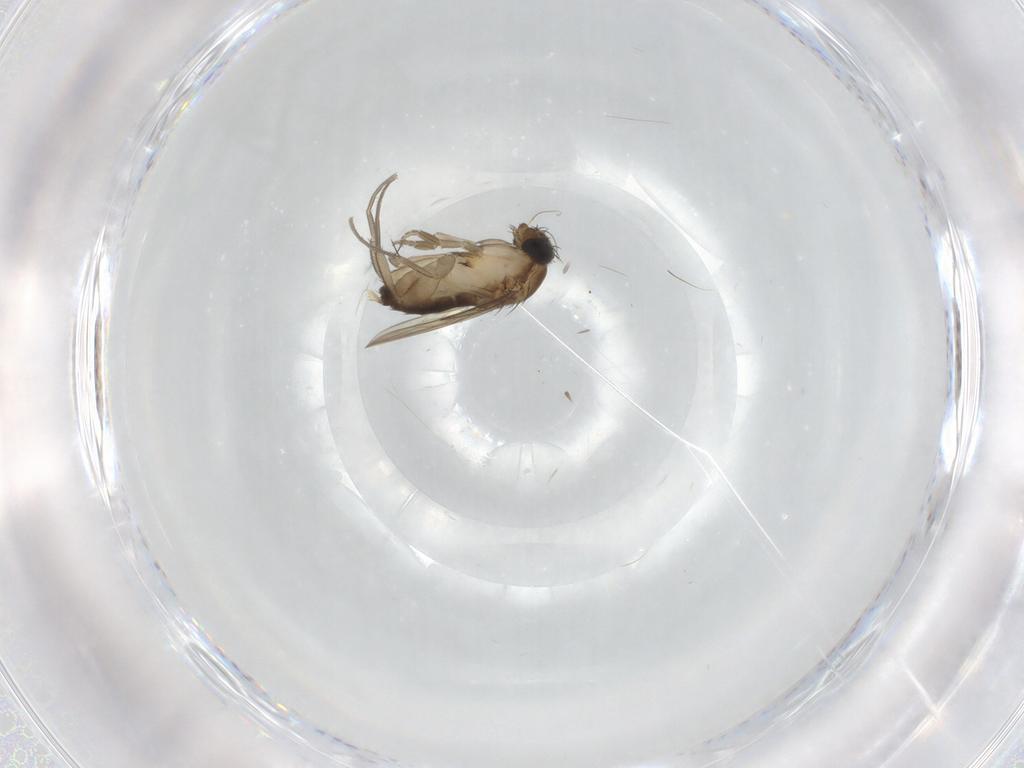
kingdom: Animalia
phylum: Arthropoda
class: Insecta
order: Diptera
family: Phoridae
